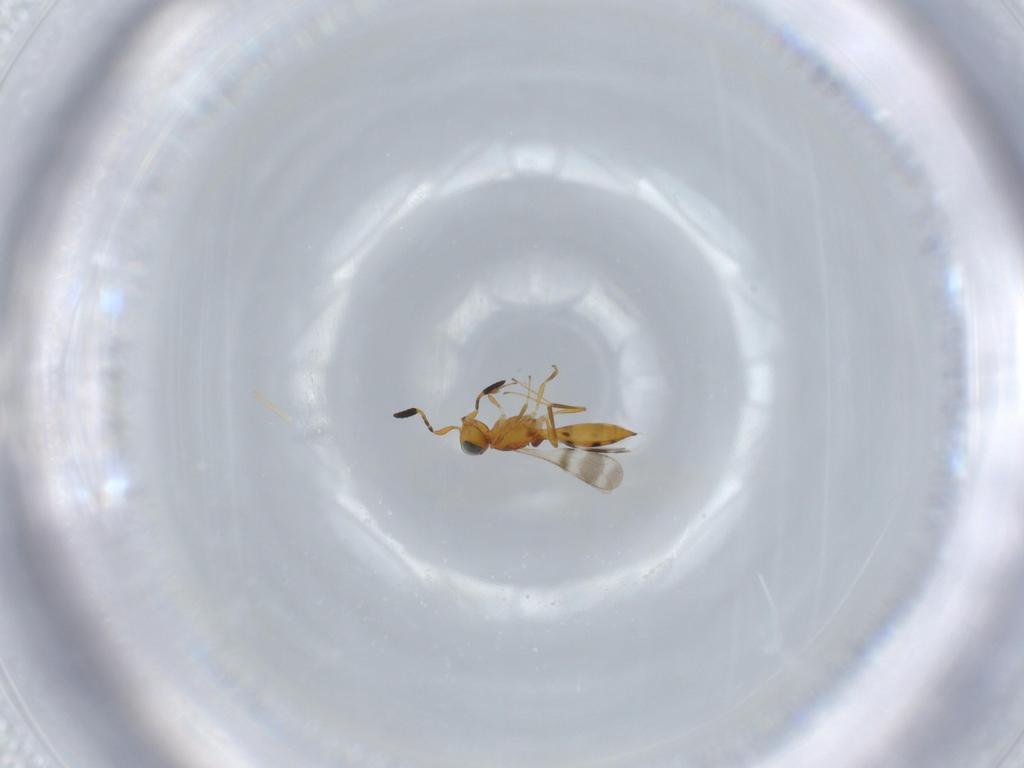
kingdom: Animalia
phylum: Arthropoda
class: Insecta
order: Hymenoptera
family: Scelionidae
